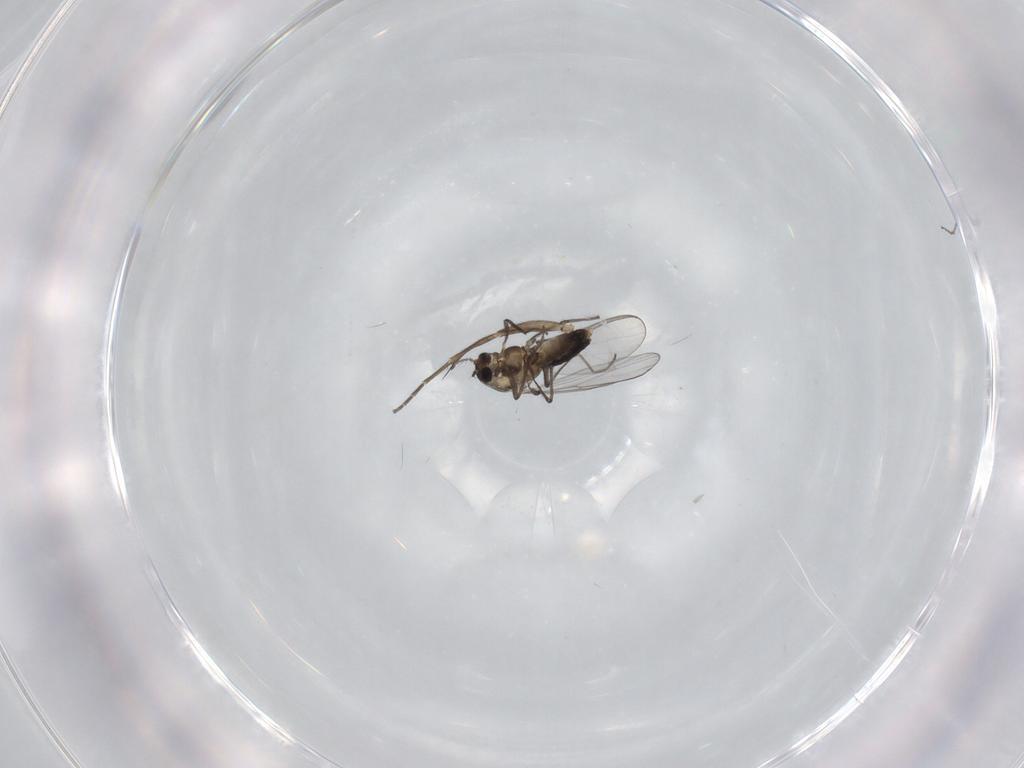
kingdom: Animalia
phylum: Arthropoda
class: Insecta
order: Diptera
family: Chironomidae
